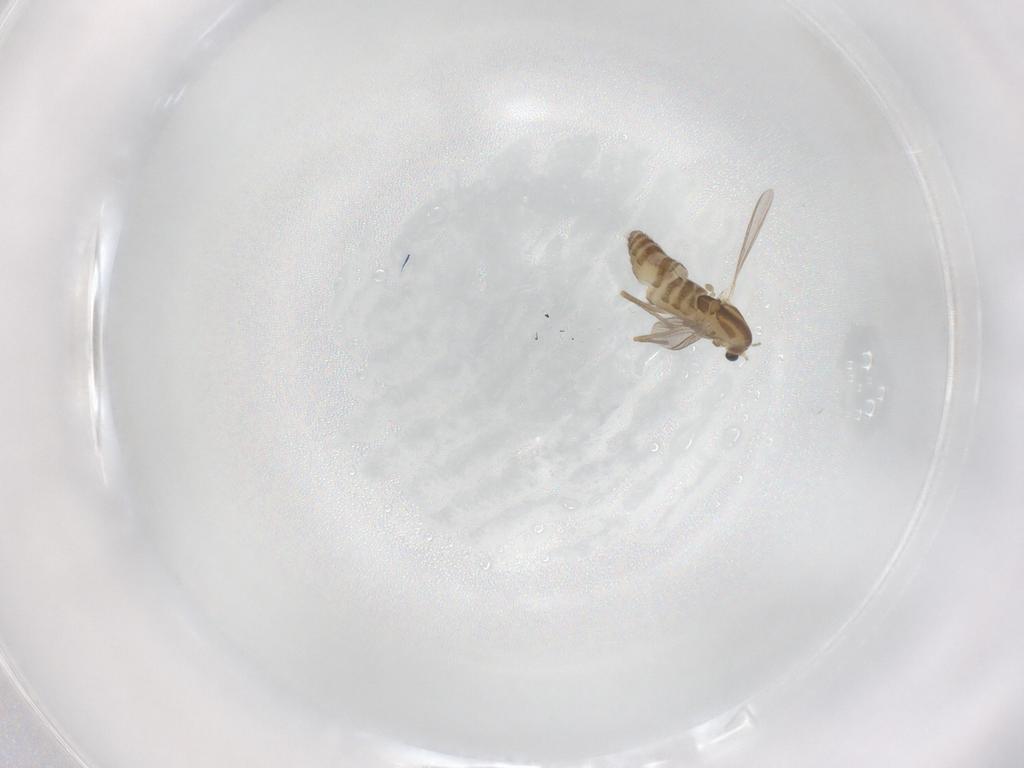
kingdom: Animalia
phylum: Arthropoda
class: Insecta
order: Diptera
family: Chironomidae
